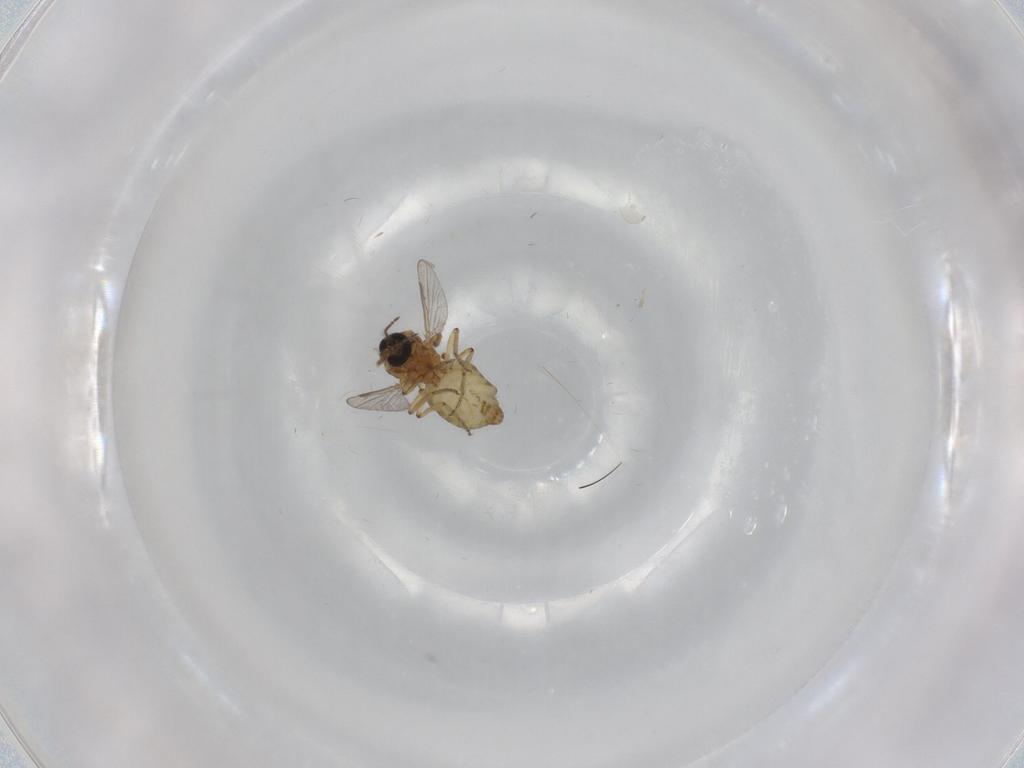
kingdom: Animalia
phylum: Arthropoda
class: Insecta
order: Diptera
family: Ceratopogonidae
